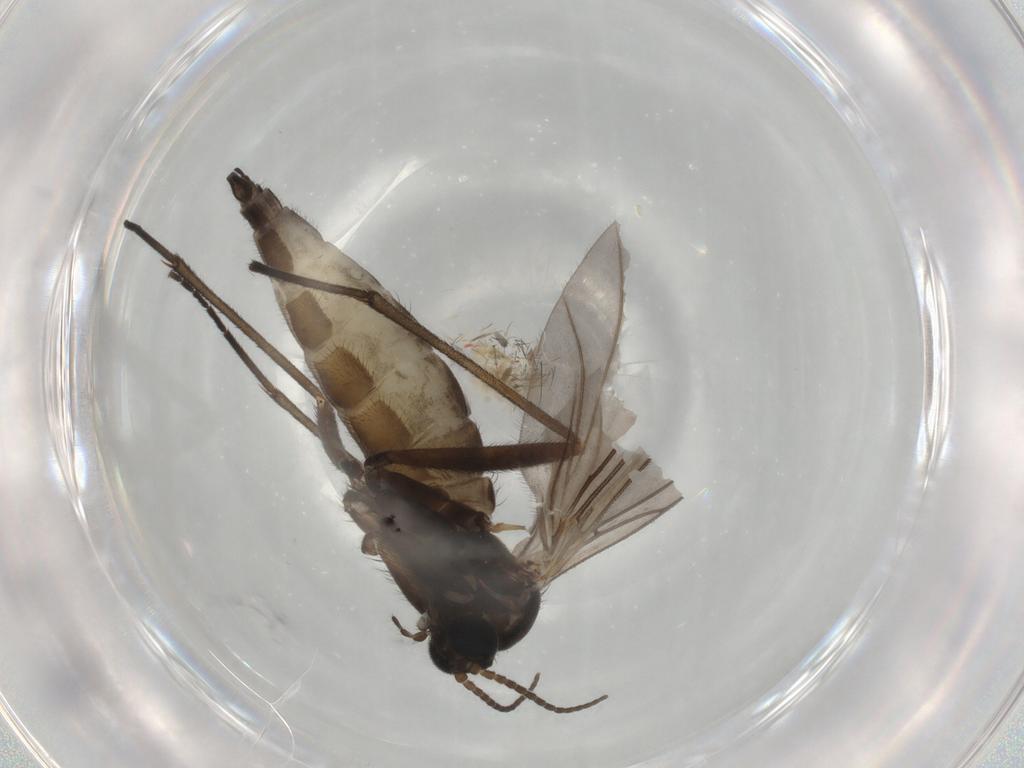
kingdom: Animalia
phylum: Arthropoda
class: Insecta
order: Diptera
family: Sciaridae
